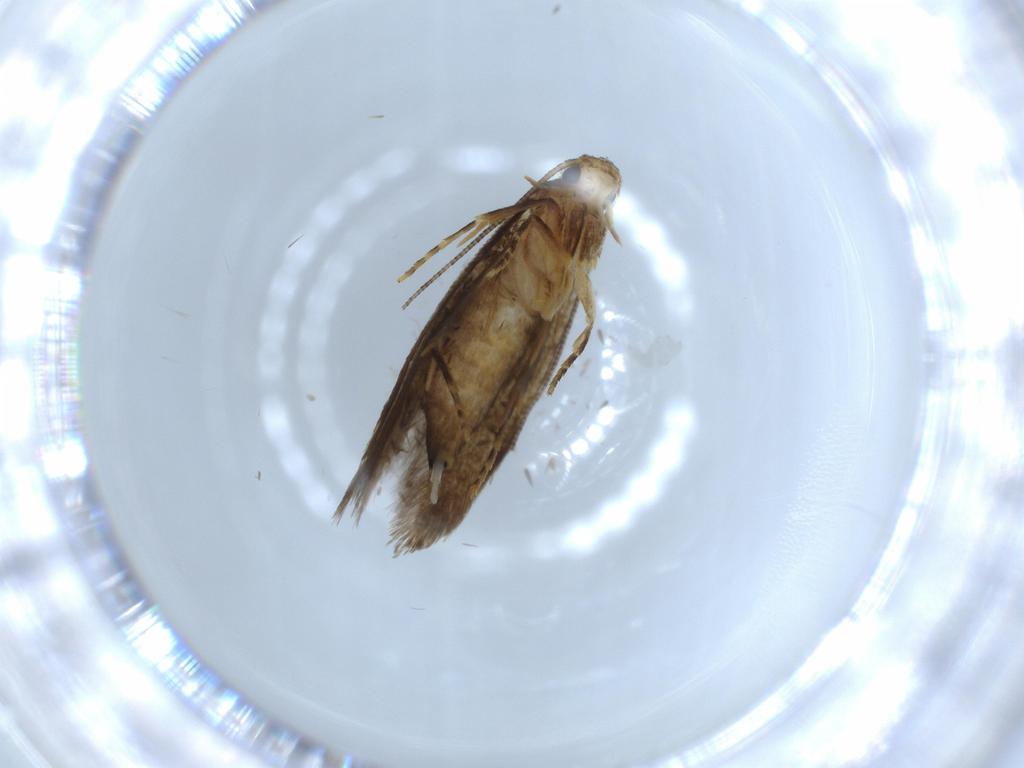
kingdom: Animalia
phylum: Arthropoda
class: Insecta
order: Lepidoptera
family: Tineidae
